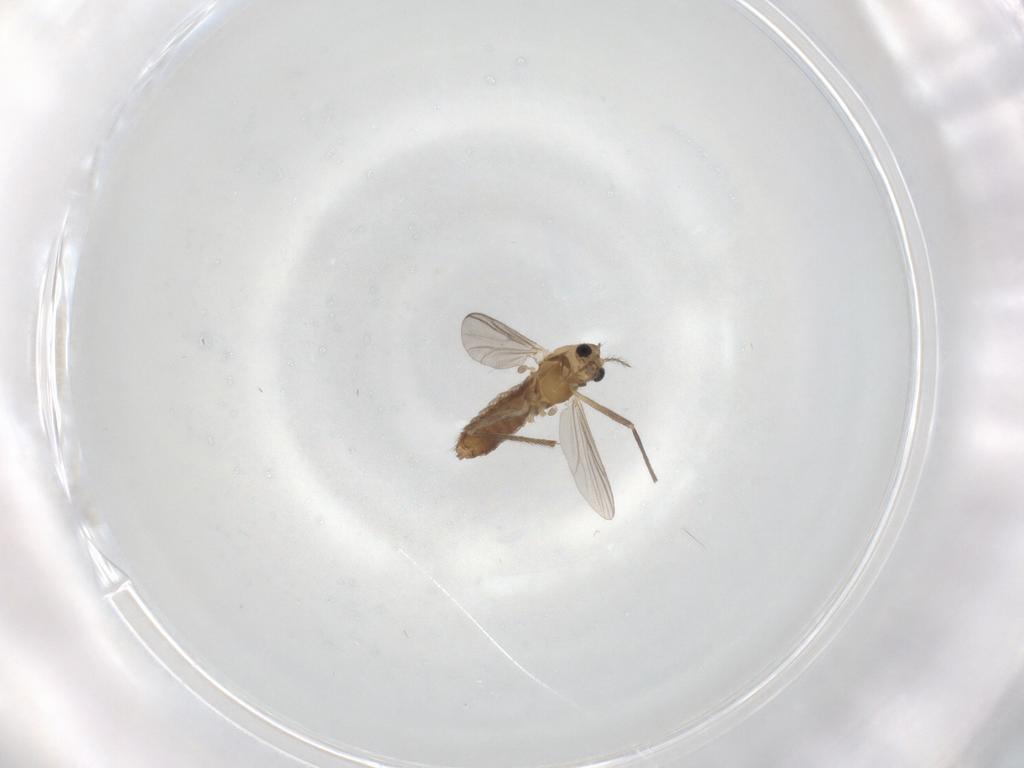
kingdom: Animalia
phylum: Arthropoda
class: Insecta
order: Diptera
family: Chironomidae
